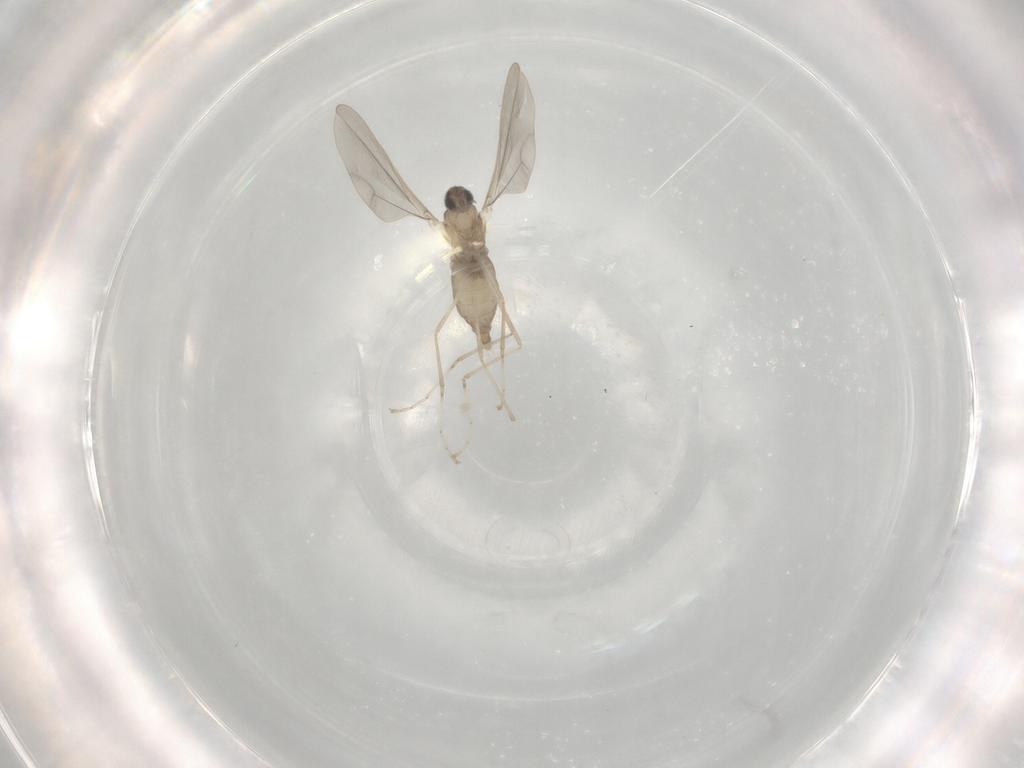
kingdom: Animalia
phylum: Arthropoda
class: Insecta
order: Diptera
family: Cecidomyiidae
